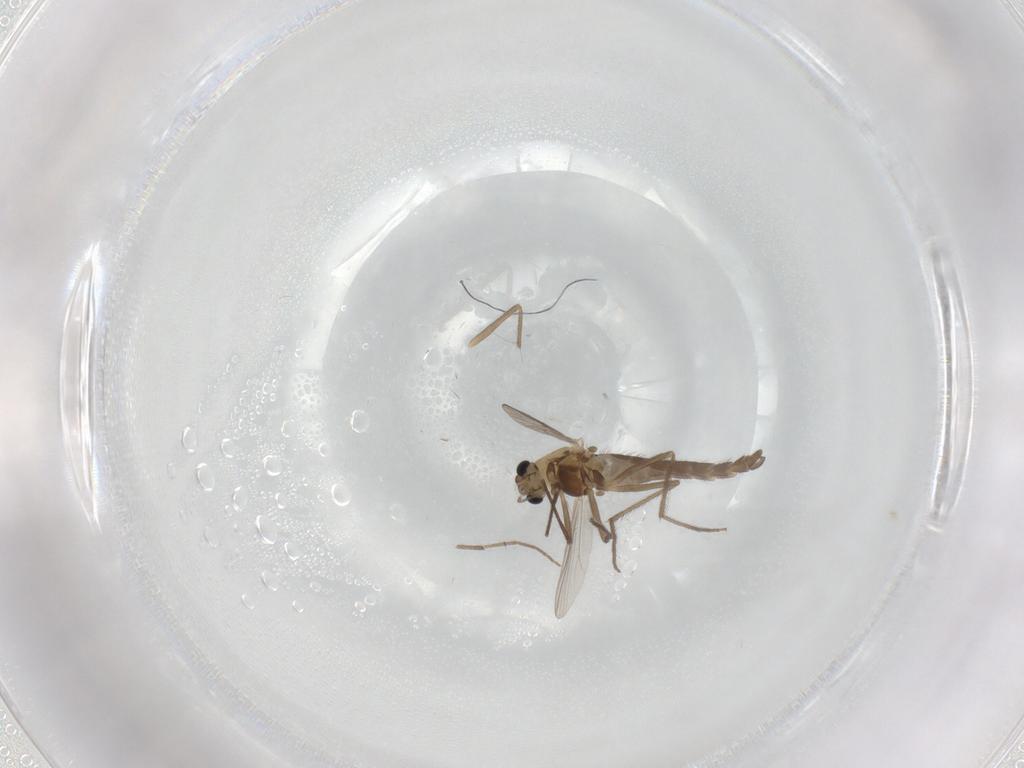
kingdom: Animalia
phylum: Arthropoda
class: Insecta
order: Diptera
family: Chironomidae
